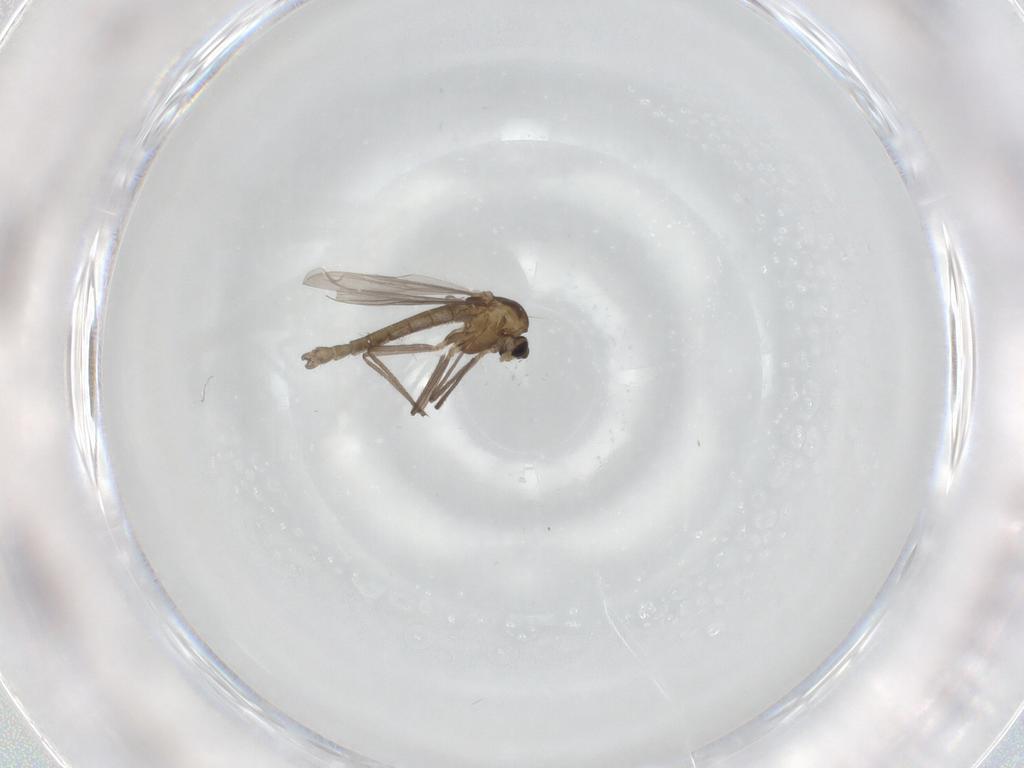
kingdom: Animalia
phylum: Arthropoda
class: Insecta
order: Diptera
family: Chironomidae
